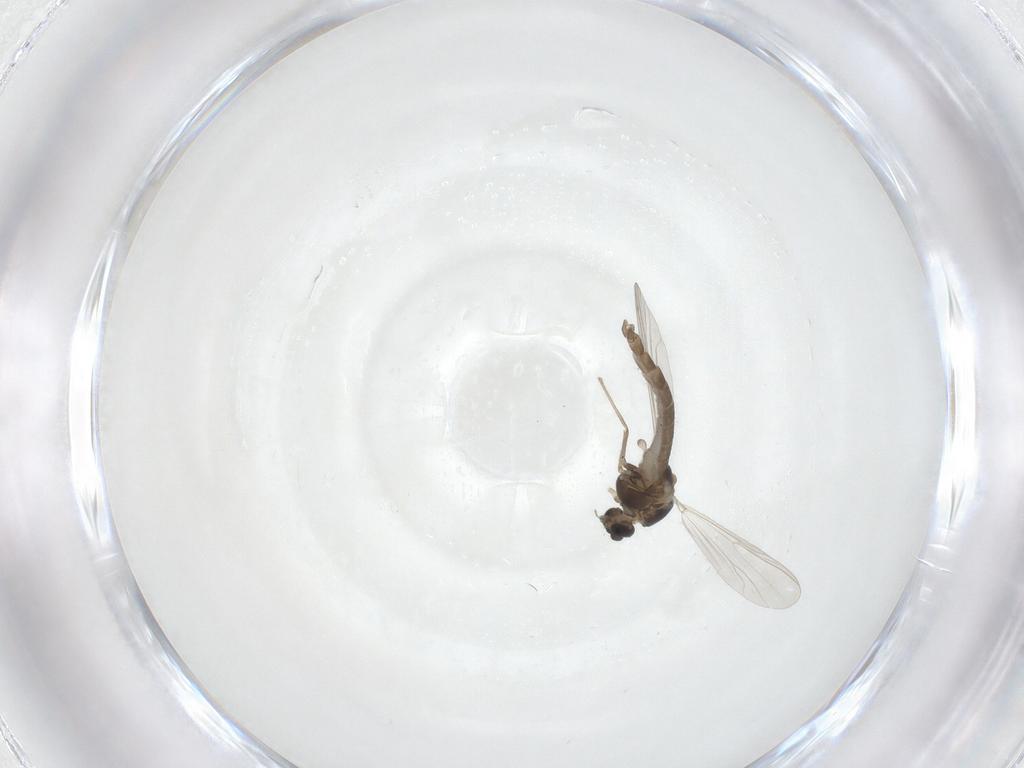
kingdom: Animalia
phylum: Arthropoda
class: Insecta
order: Diptera
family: Chironomidae
